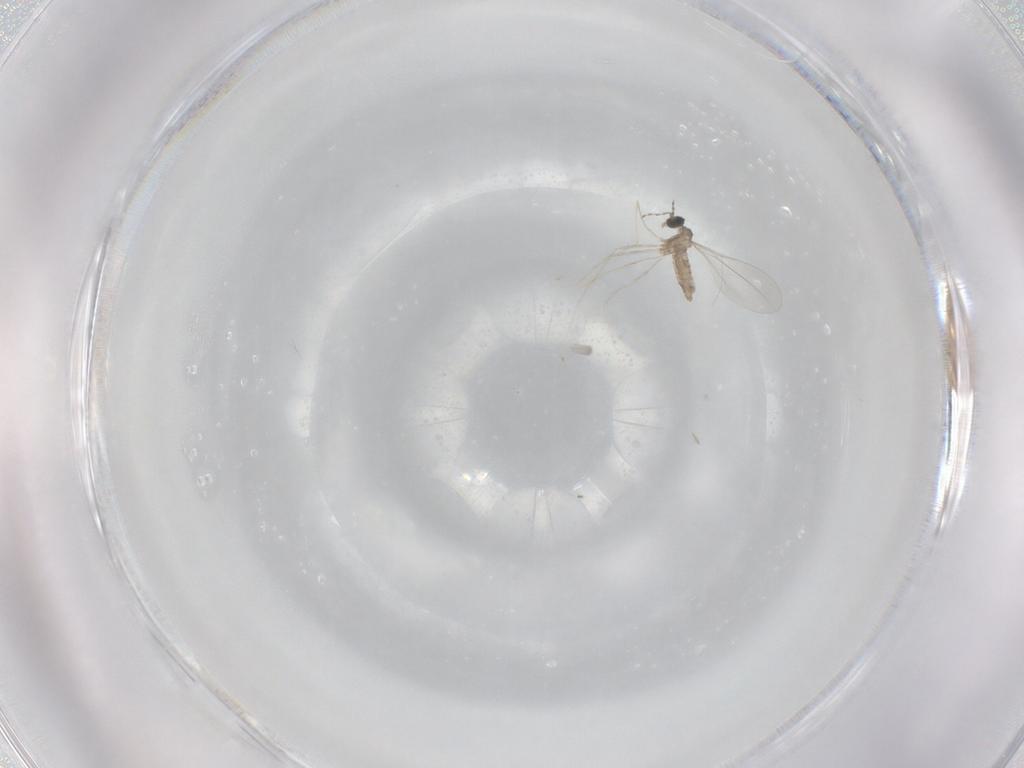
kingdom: Animalia
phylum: Arthropoda
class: Insecta
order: Diptera
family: Cecidomyiidae
